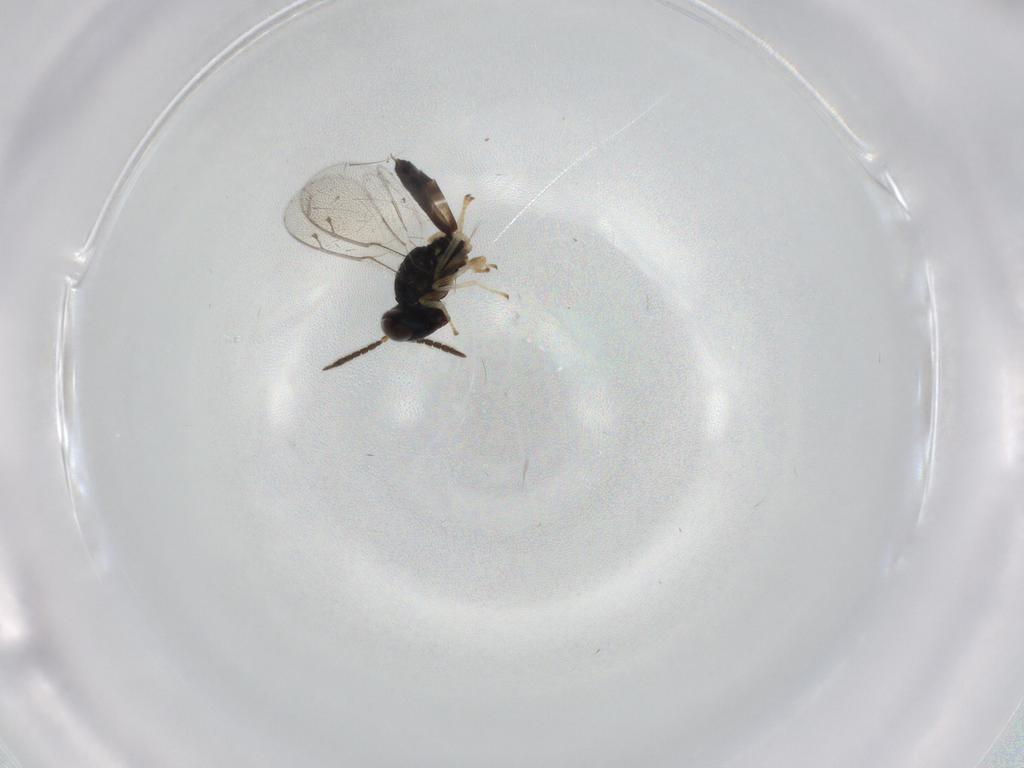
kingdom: Animalia
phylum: Arthropoda
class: Insecta
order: Hymenoptera
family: Pteromalidae
